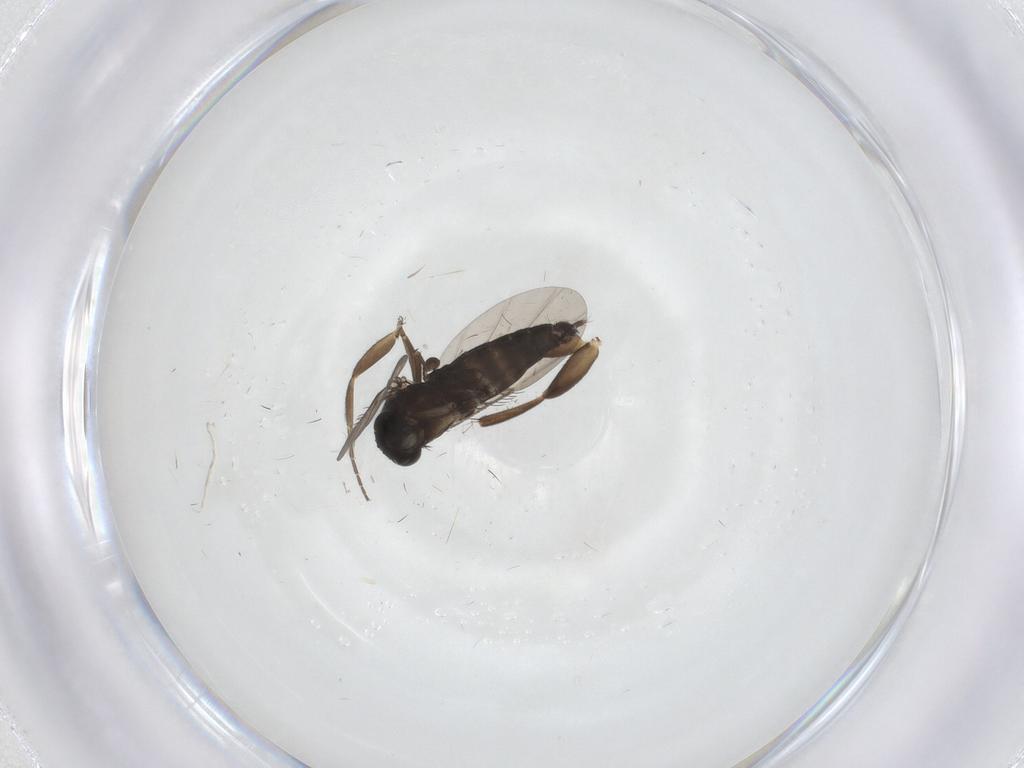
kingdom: Animalia
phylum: Arthropoda
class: Insecta
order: Diptera
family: Phoridae
